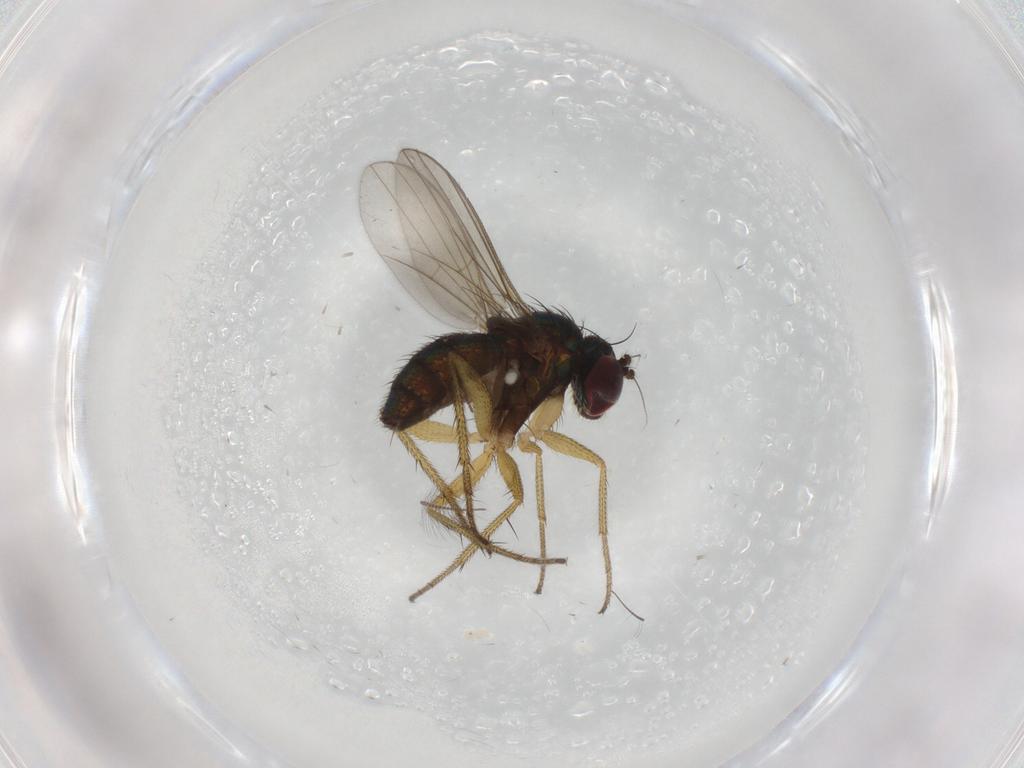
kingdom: Animalia
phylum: Arthropoda
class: Insecta
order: Diptera
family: Dolichopodidae
